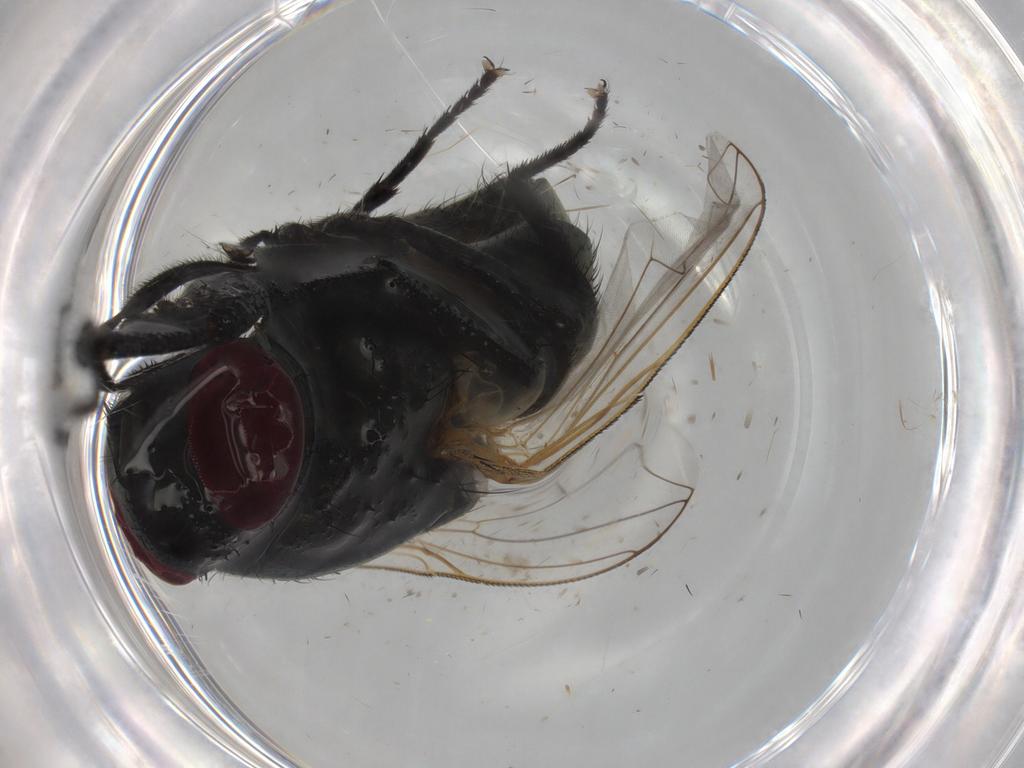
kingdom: Animalia
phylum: Arthropoda
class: Insecta
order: Diptera
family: Muscidae
